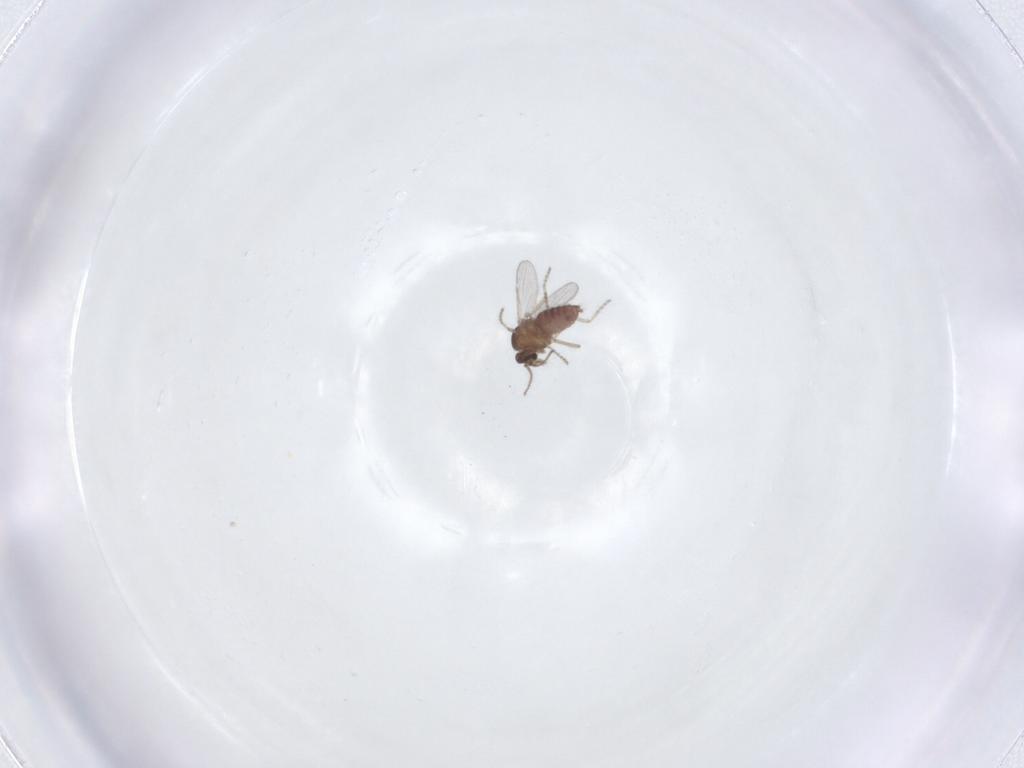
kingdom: Animalia
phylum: Arthropoda
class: Insecta
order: Diptera
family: Ceratopogonidae
